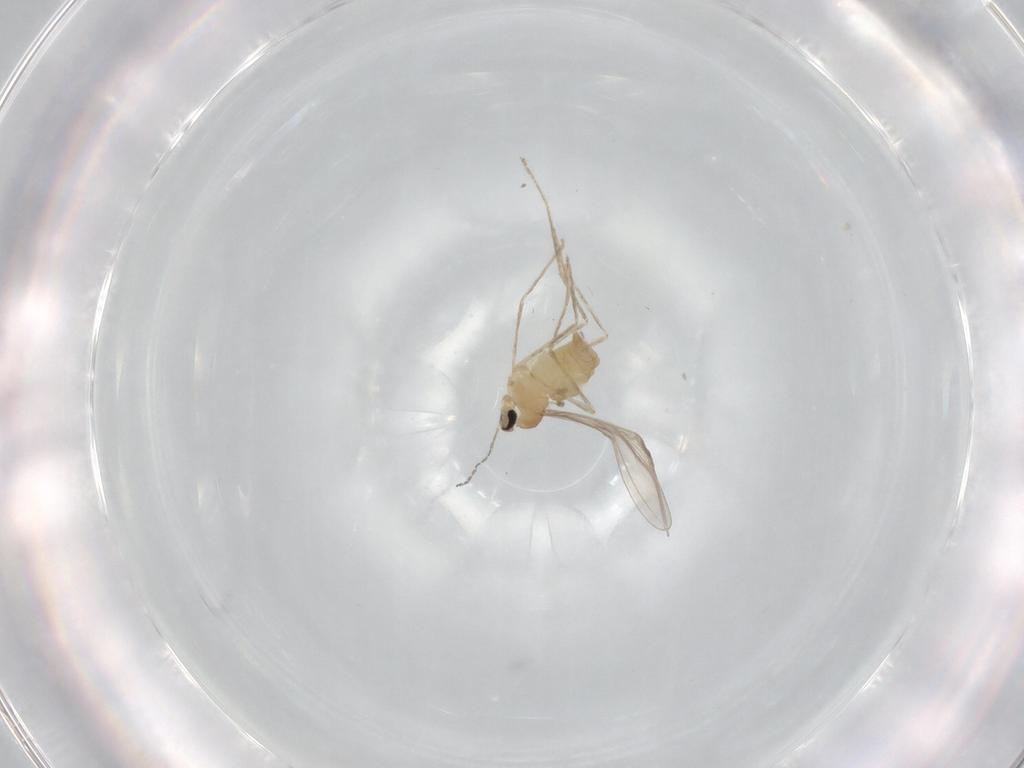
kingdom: Animalia
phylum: Arthropoda
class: Insecta
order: Diptera
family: Cecidomyiidae
